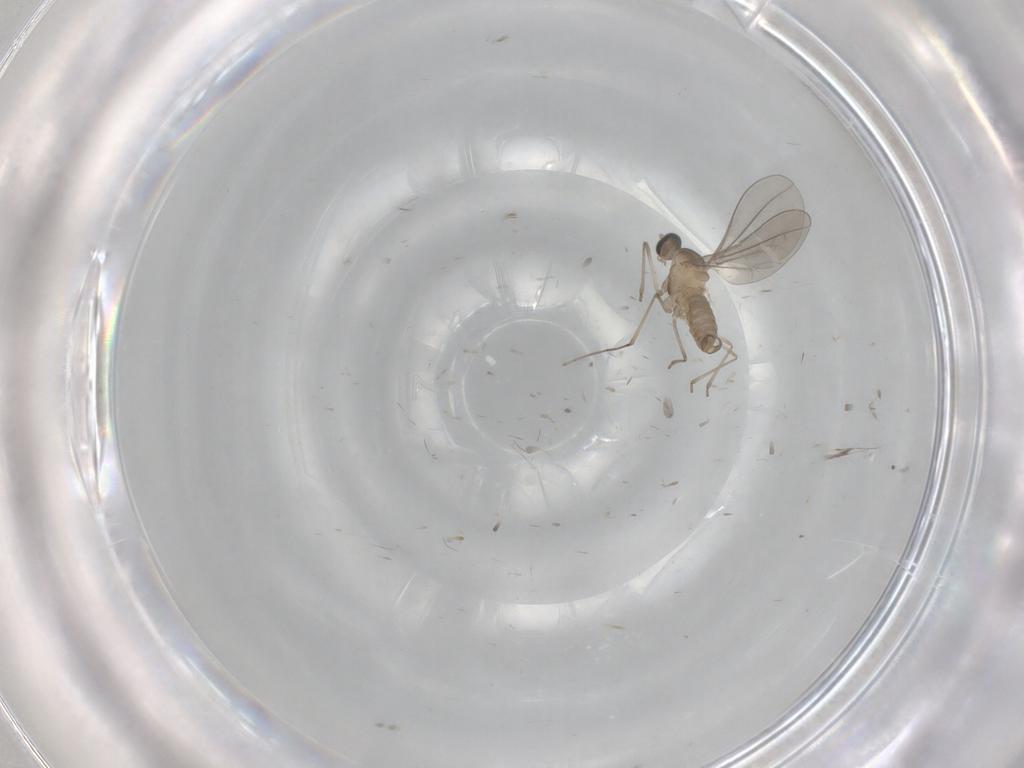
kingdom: Animalia
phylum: Arthropoda
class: Insecta
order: Diptera
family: Cecidomyiidae
